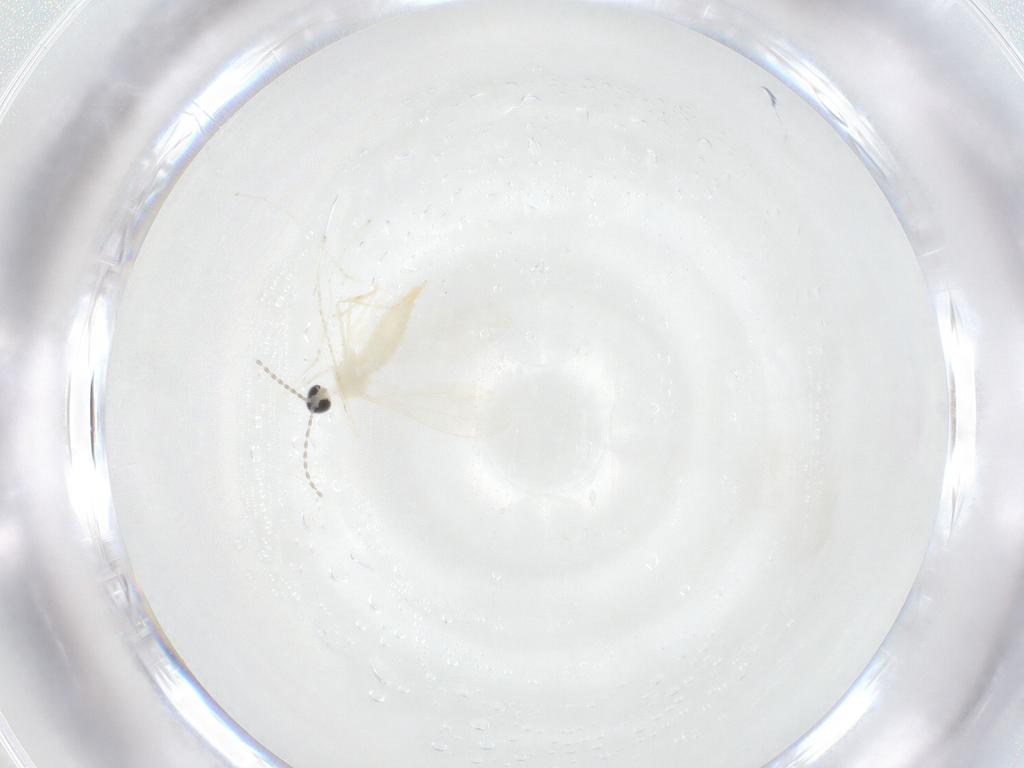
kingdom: Animalia
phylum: Arthropoda
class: Insecta
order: Diptera
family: Cecidomyiidae
